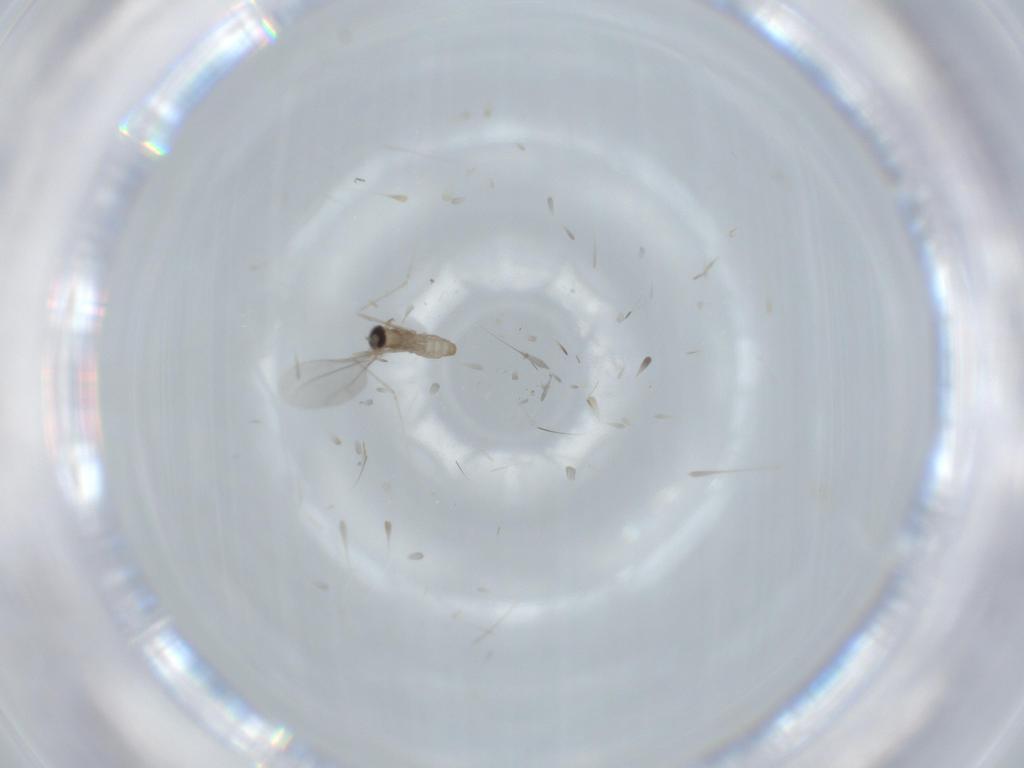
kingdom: Animalia
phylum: Arthropoda
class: Insecta
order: Diptera
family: Cecidomyiidae
